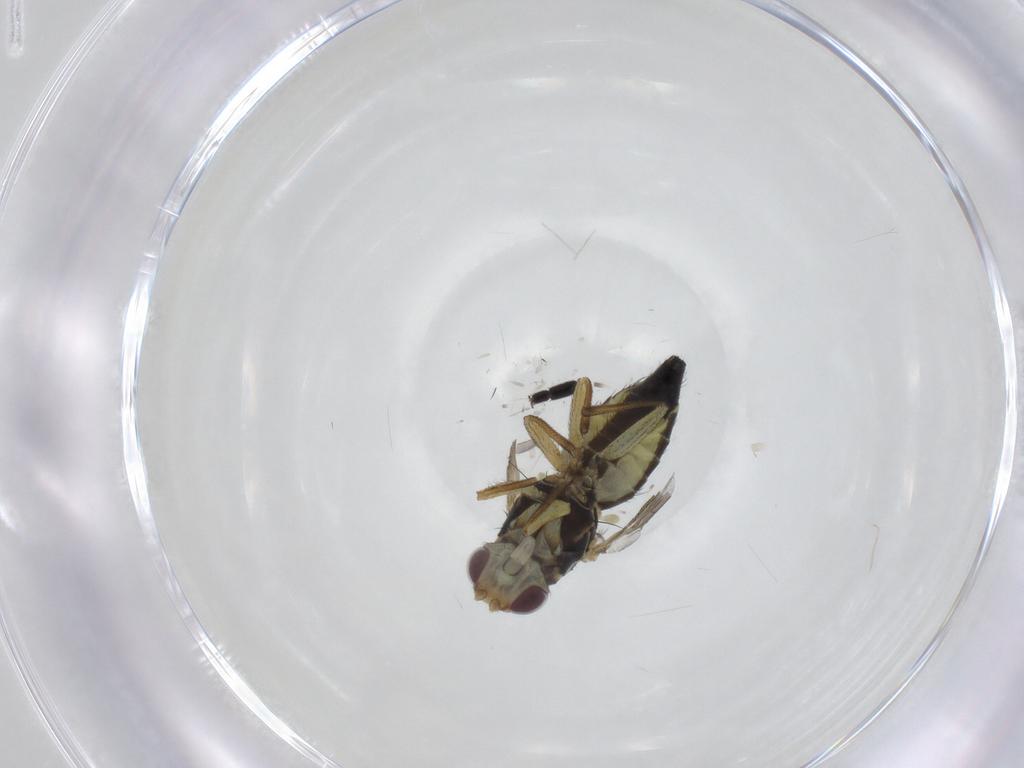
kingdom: Animalia
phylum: Arthropoda
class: Insecta
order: Diptera
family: Agromyzidae
